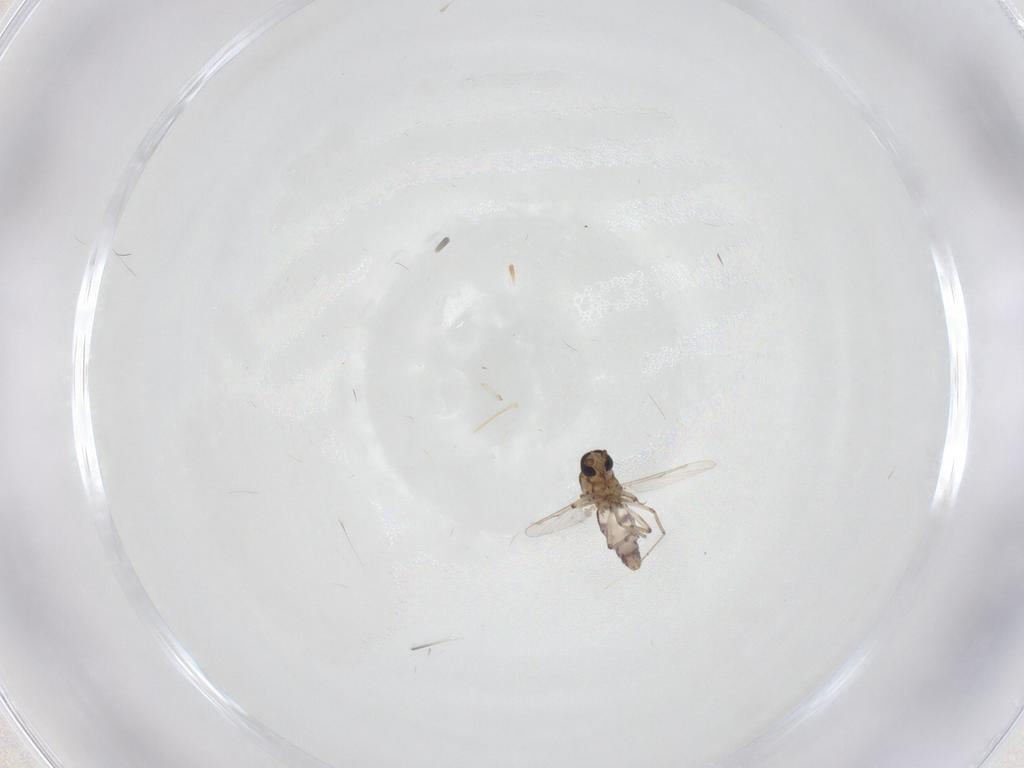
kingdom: Animalia
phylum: Arthropoda
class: Insecta
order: Diptera
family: Ceratopogonidae
